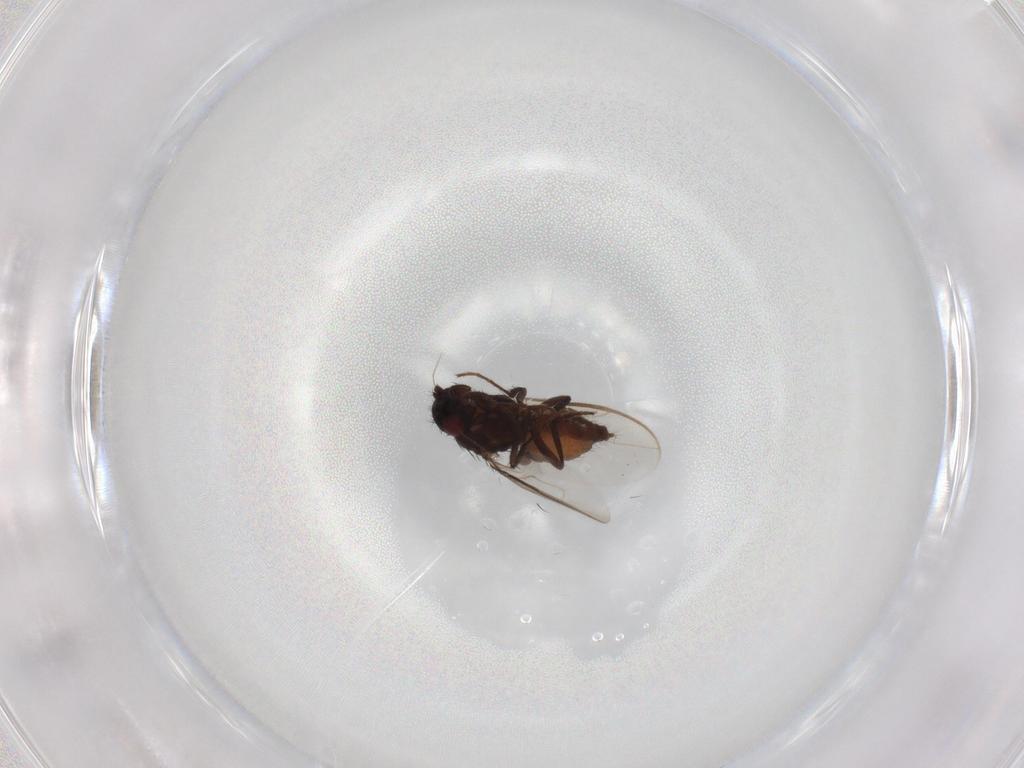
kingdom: Animalia
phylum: Arthropoda
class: Insecta
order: Diptera
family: Sphaeroceridae
